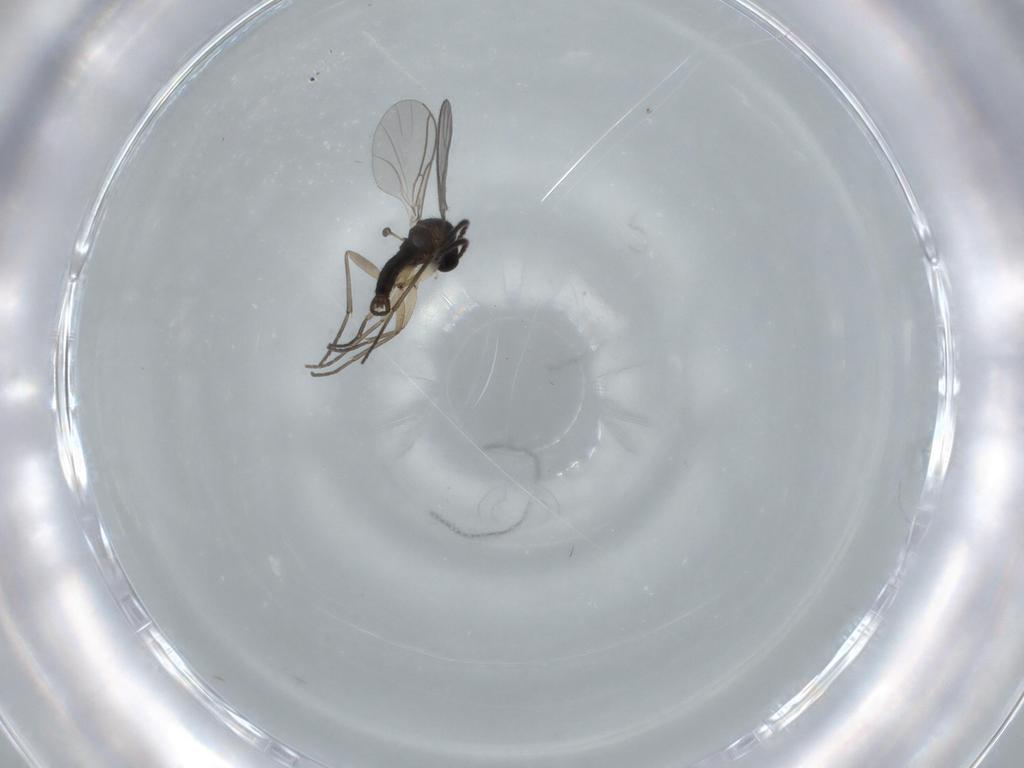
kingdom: Animalia
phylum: Arthropoda
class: Insecta
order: Diptera
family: Sciaridae
